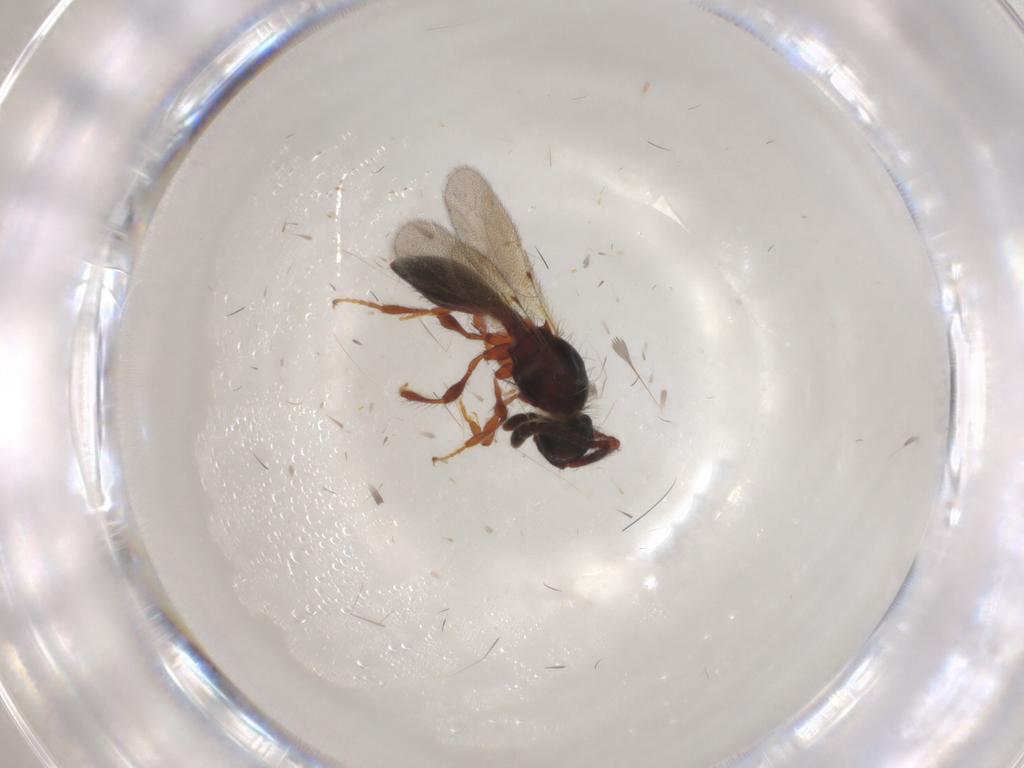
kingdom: Animalia
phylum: Arthropoda
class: Insecta
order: Hymenoptera
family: Diapriidae
